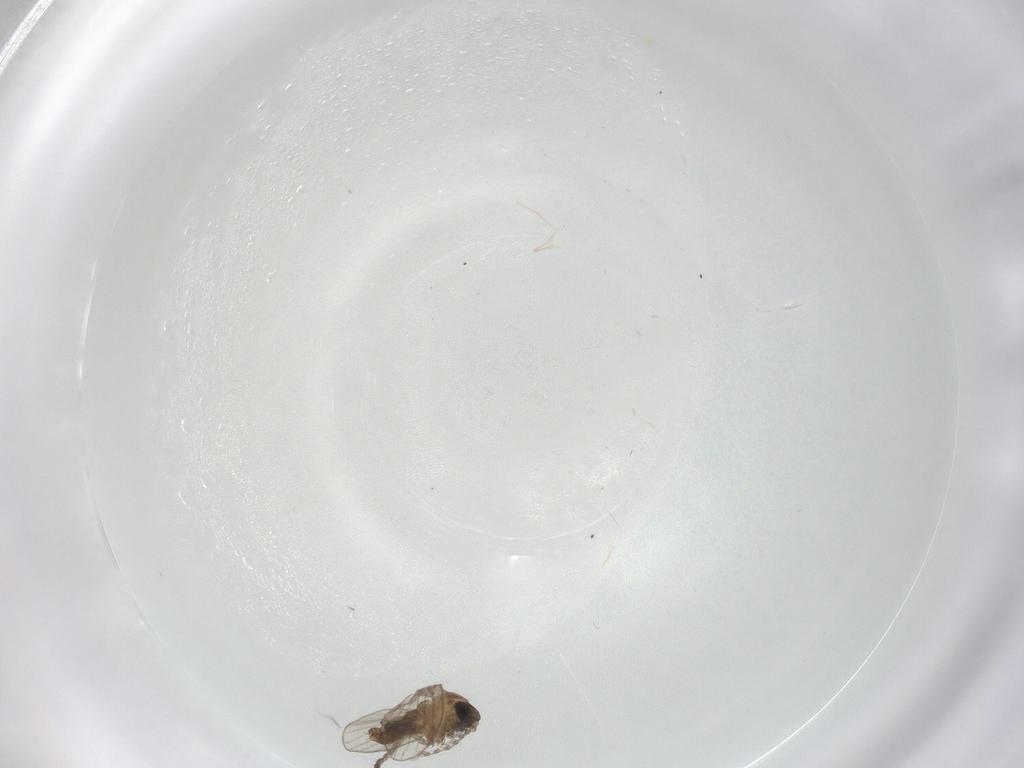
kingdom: Animalia
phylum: Arthropoda
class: Insecta
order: Diptera
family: Psychodidae
